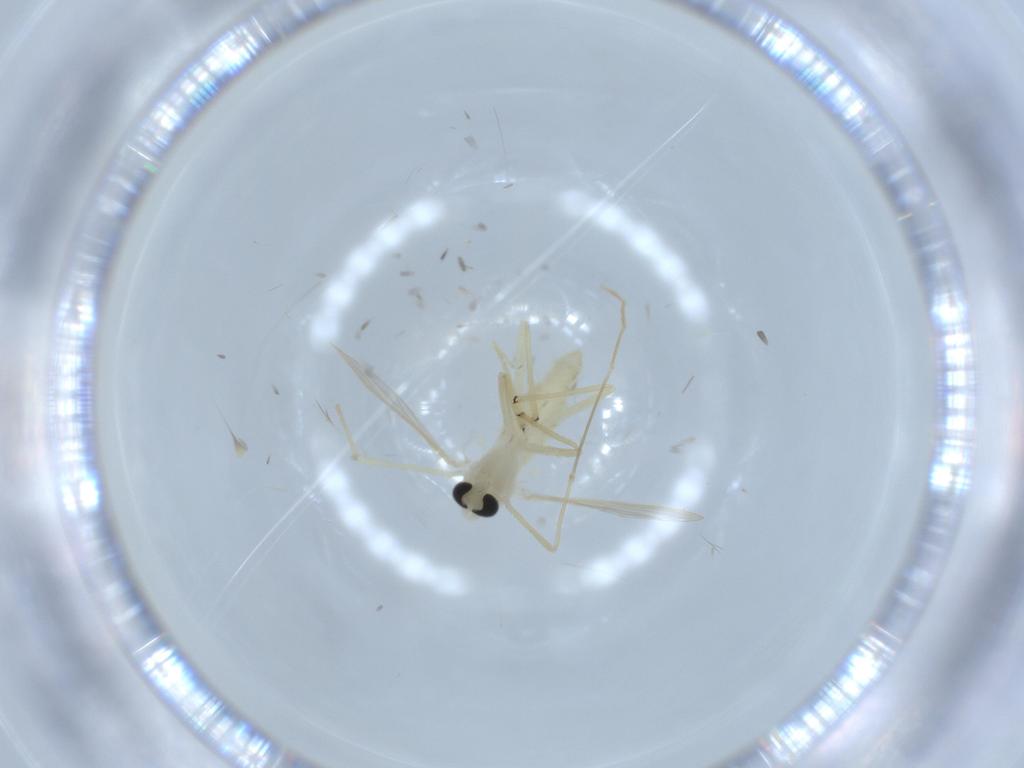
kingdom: Animalia
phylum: Arthropoda
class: Insecta
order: Diptera
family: Chironomidae
